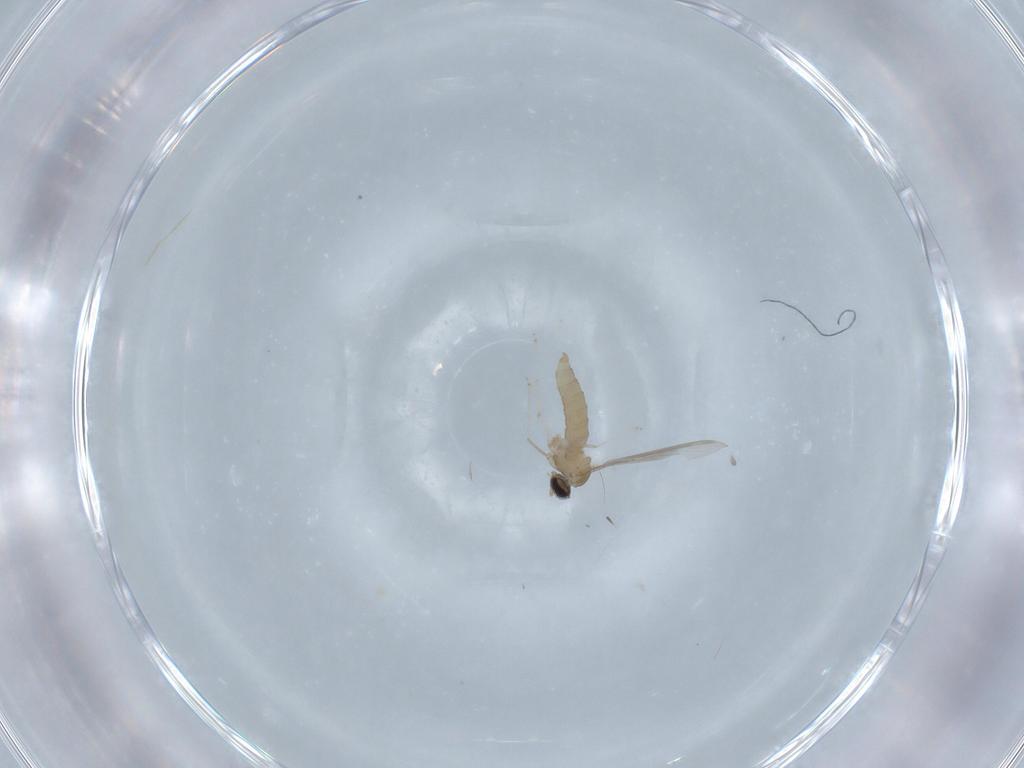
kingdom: Animalia
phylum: Arthropoda
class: Insecta
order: Diptera
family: Cecidomyiidae
